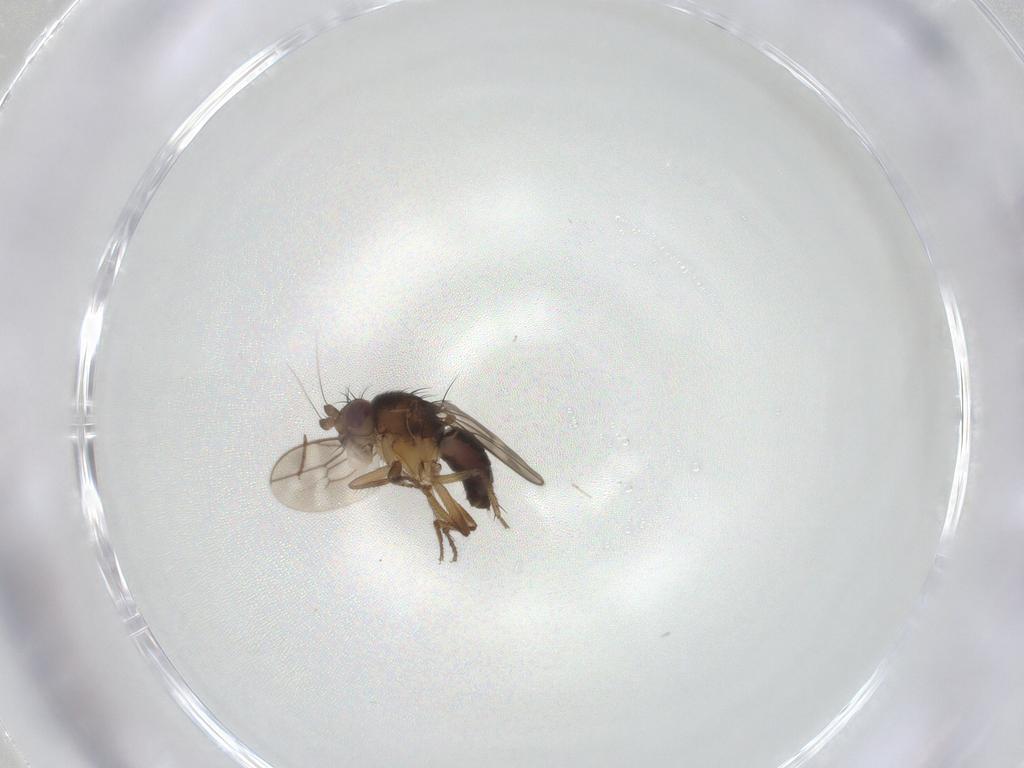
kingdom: Animalia
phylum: Arthropoda
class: Insecta
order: Diptera
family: Sphaeroceridae
